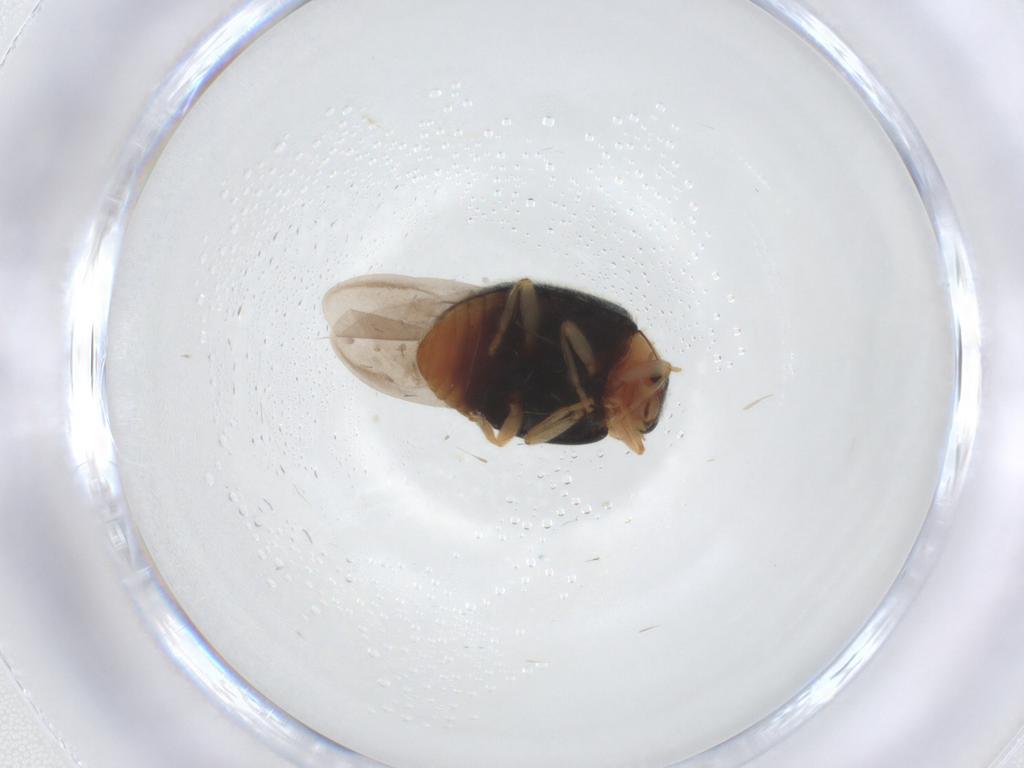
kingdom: Animalia
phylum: Arthropoda
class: Insecta
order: Coleoptera
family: Coccinellidae
